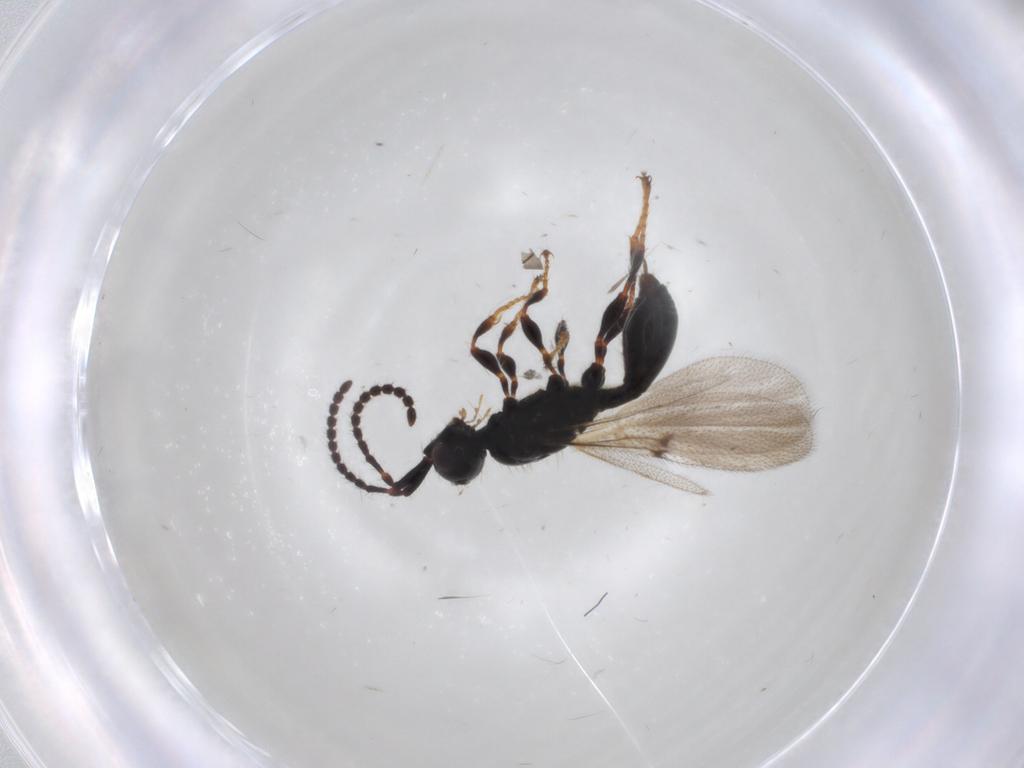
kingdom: Animalia
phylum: Arthropoda
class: Insecta
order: Hymenoptera
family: Diapriidae
